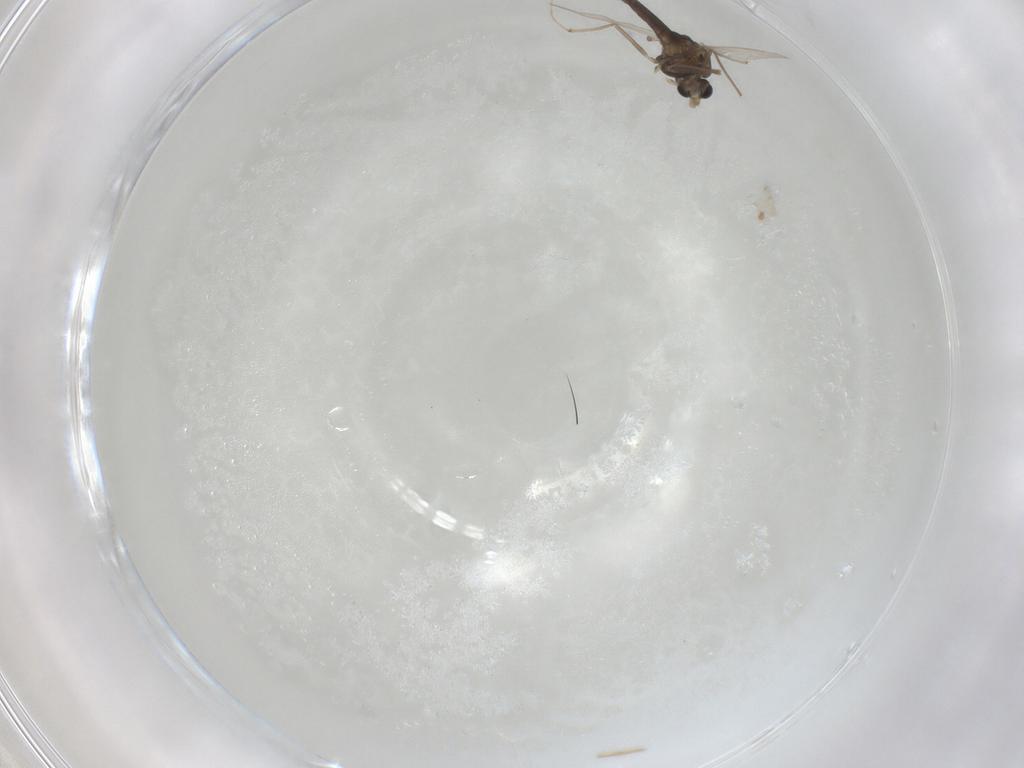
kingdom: Animalia
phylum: Arthropoda
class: Insecta
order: Diptera
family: Chironomidae
